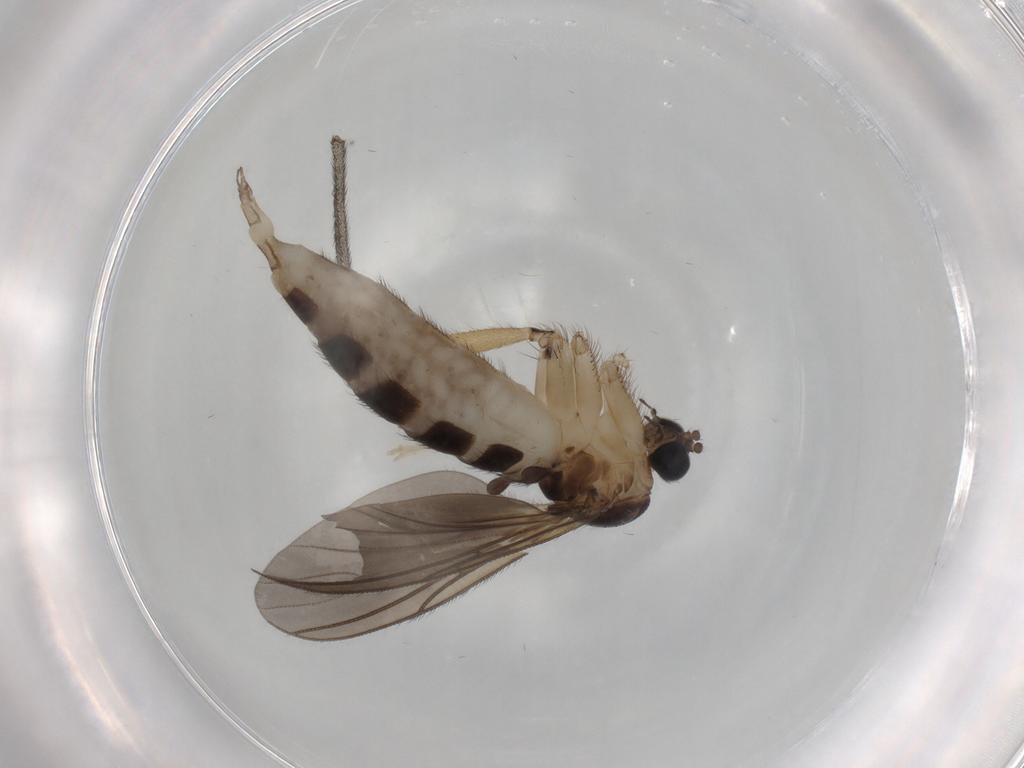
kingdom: Animalia
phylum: Arthropoda
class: Insecta
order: Diptera
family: Sciaridae
